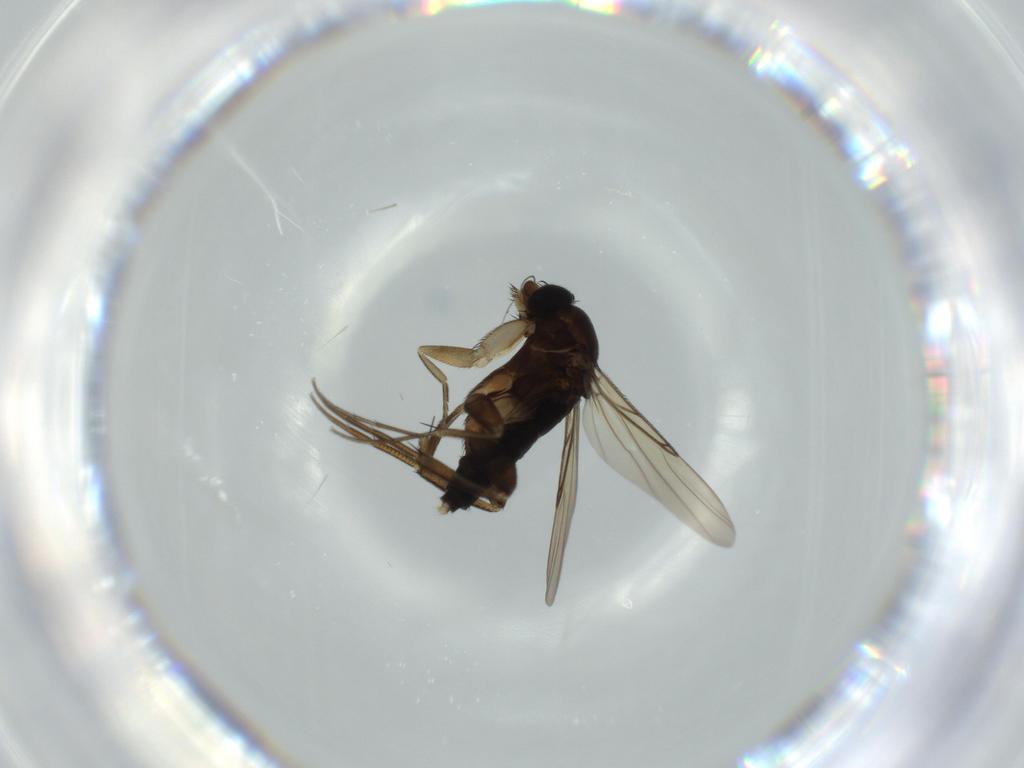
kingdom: Animalia
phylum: Arthropoda
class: Insecta
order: Diptera
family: Phoridae
